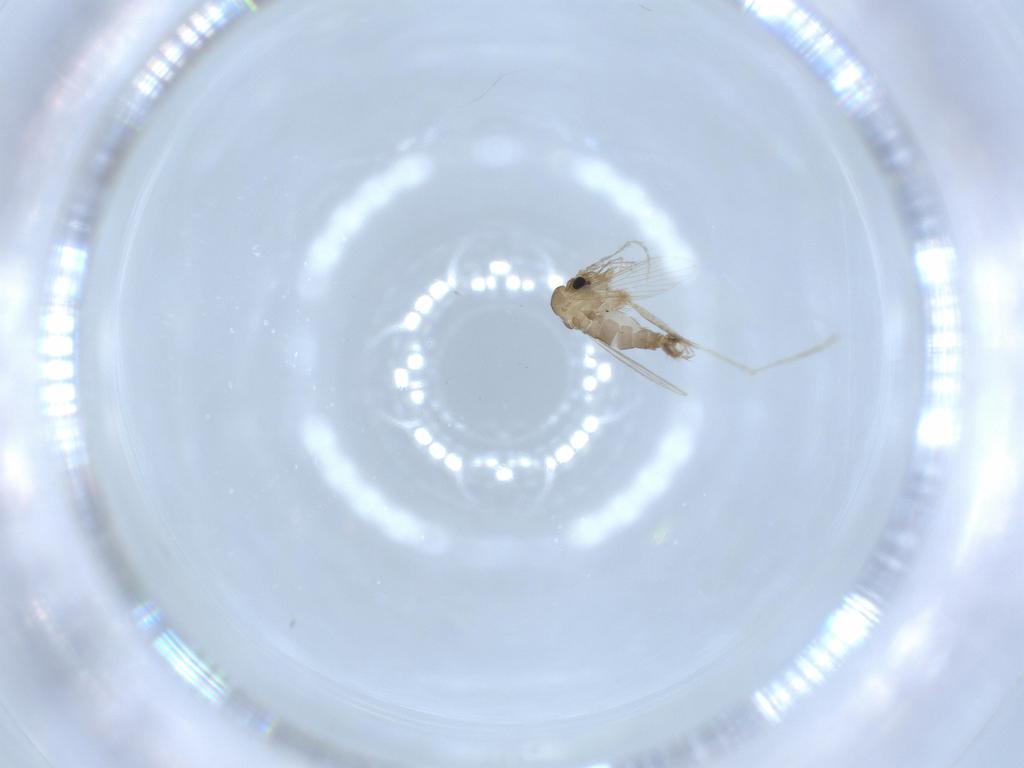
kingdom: Animalia
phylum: Arthropoda
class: Insecta
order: Diptera
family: Psychodidae
